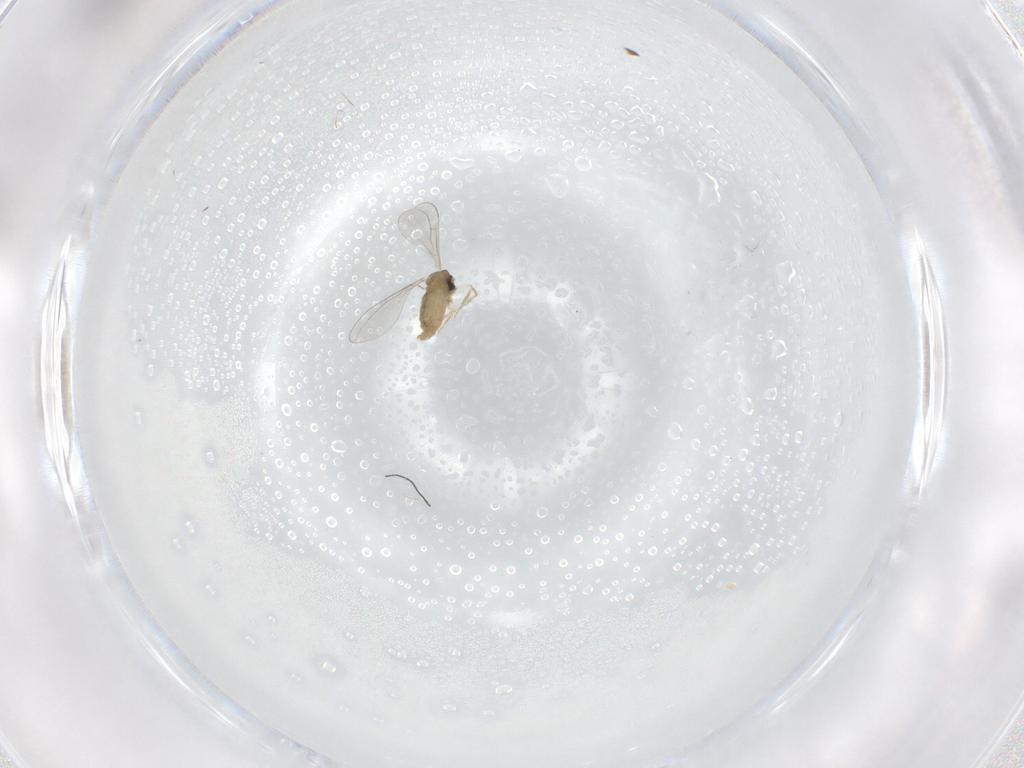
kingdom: Animalia
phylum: Arthropoda
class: Insecta
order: Diptera
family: Cecidomyiidae
